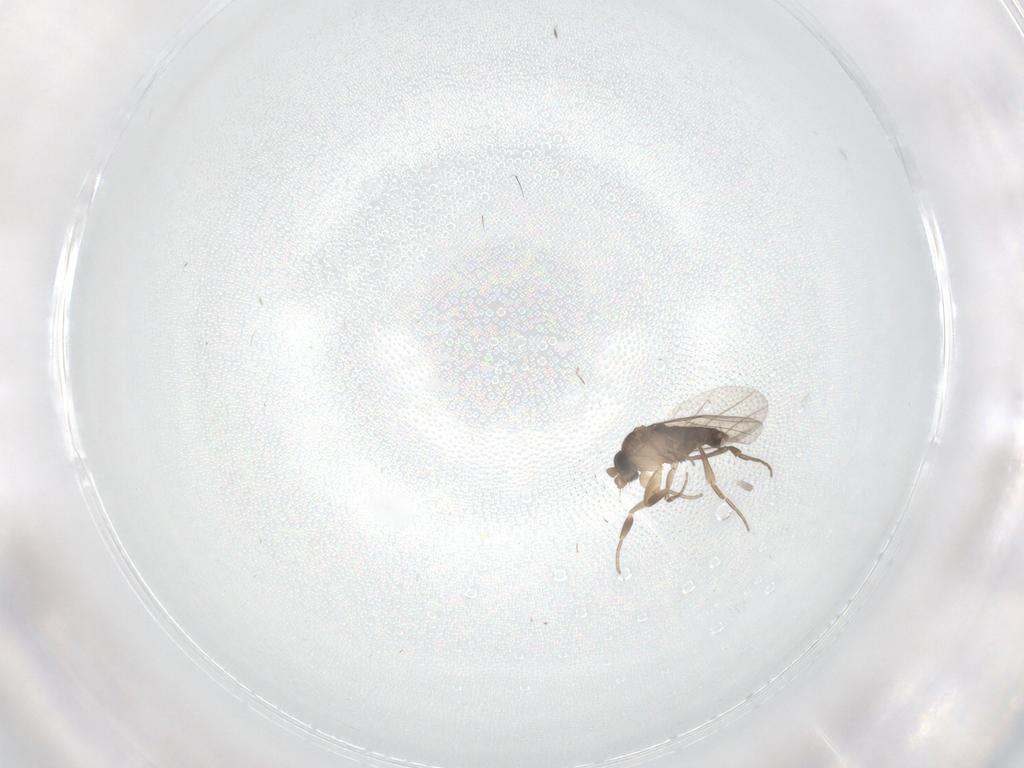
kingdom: Animalia
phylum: Arthropoda
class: Insecta
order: Diptera
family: Phoridae
